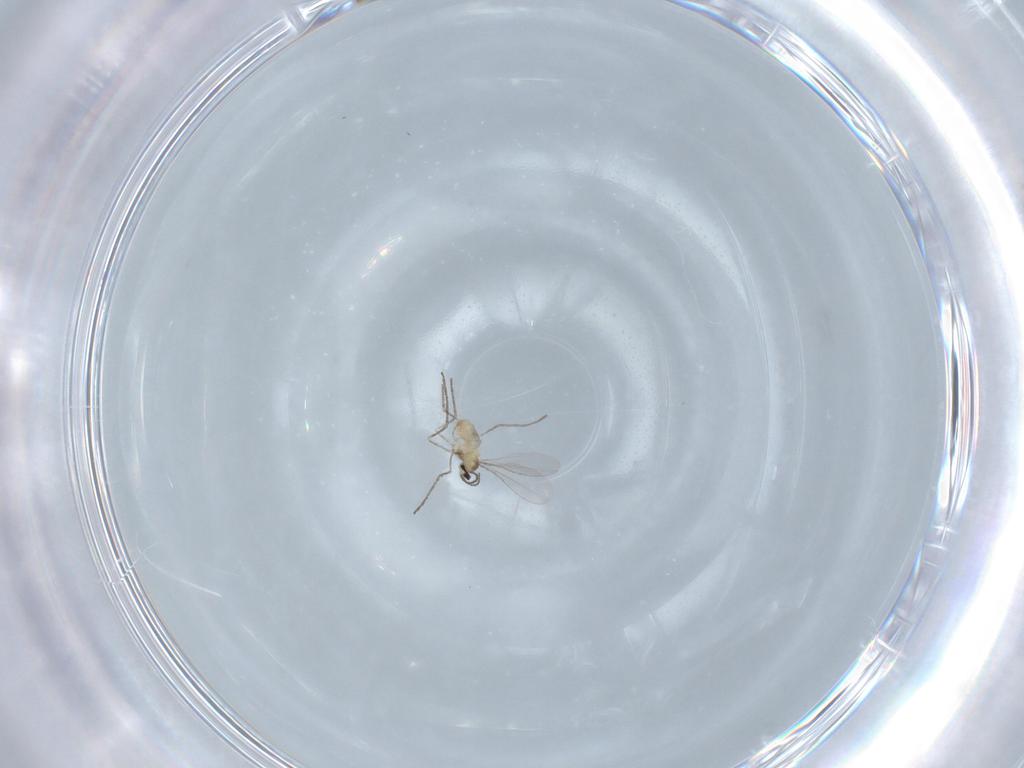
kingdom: Animalia
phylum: Arthropoda
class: Insecta
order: Diptera
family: Cecidomyiidae
